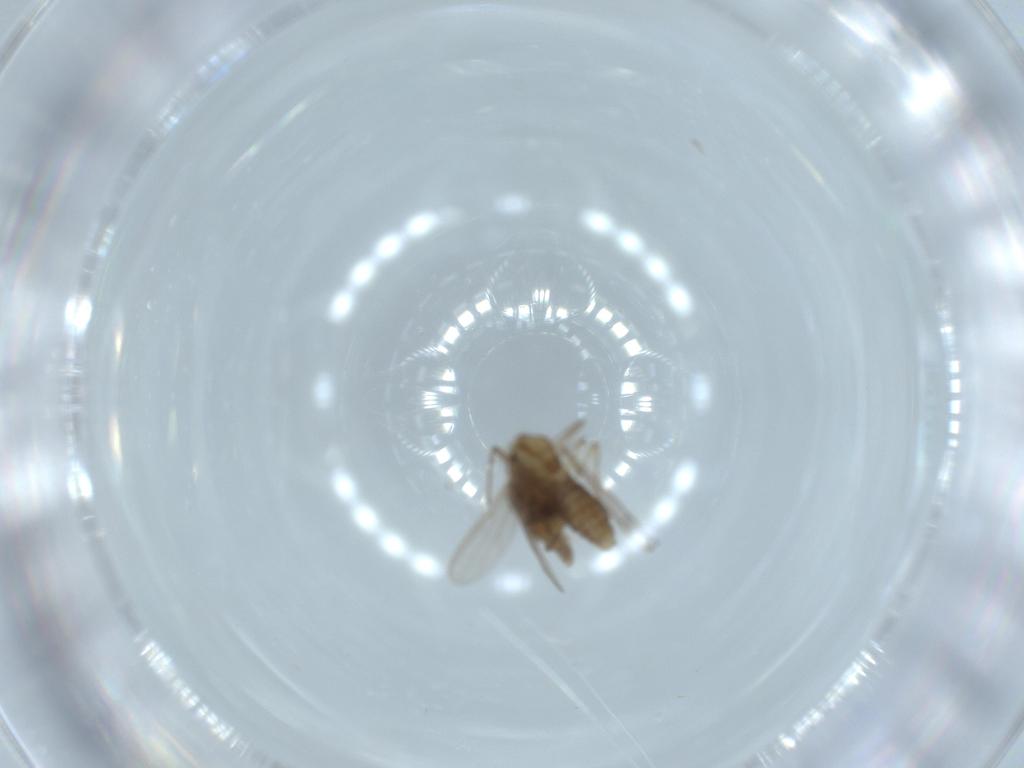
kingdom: Animalia
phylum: Arthropoda
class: Insecta
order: Diptera
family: Chironomidae
